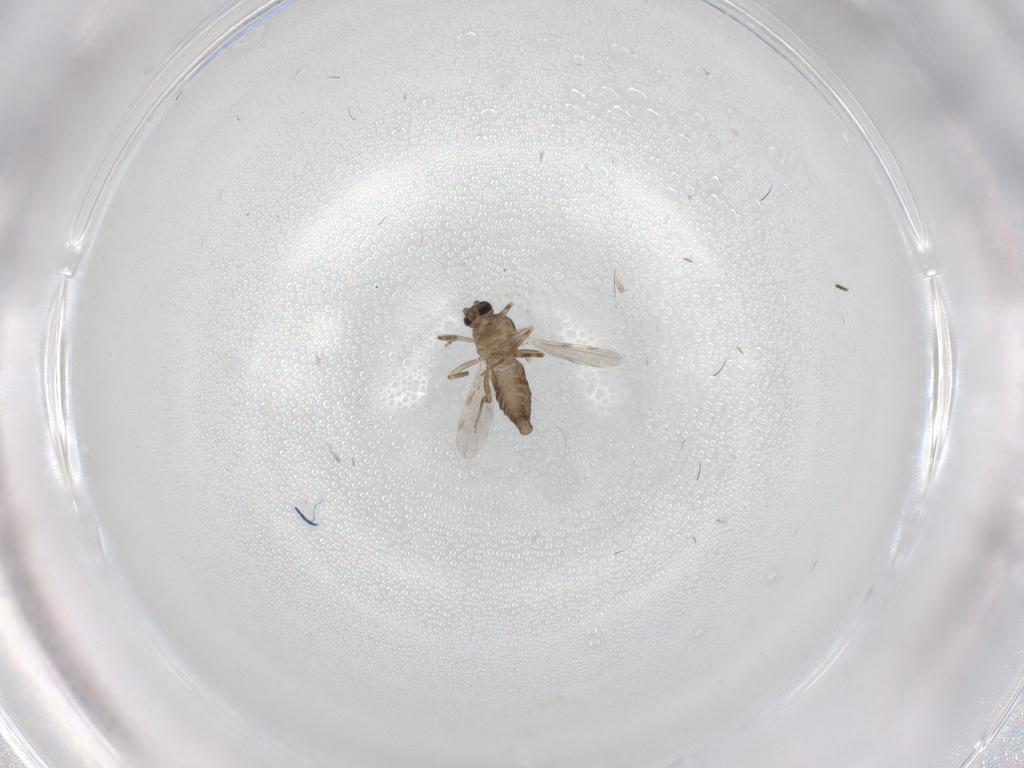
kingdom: Animalia
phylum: Arthropoda
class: Insecta
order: Diptera
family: Ceratopogonidae
